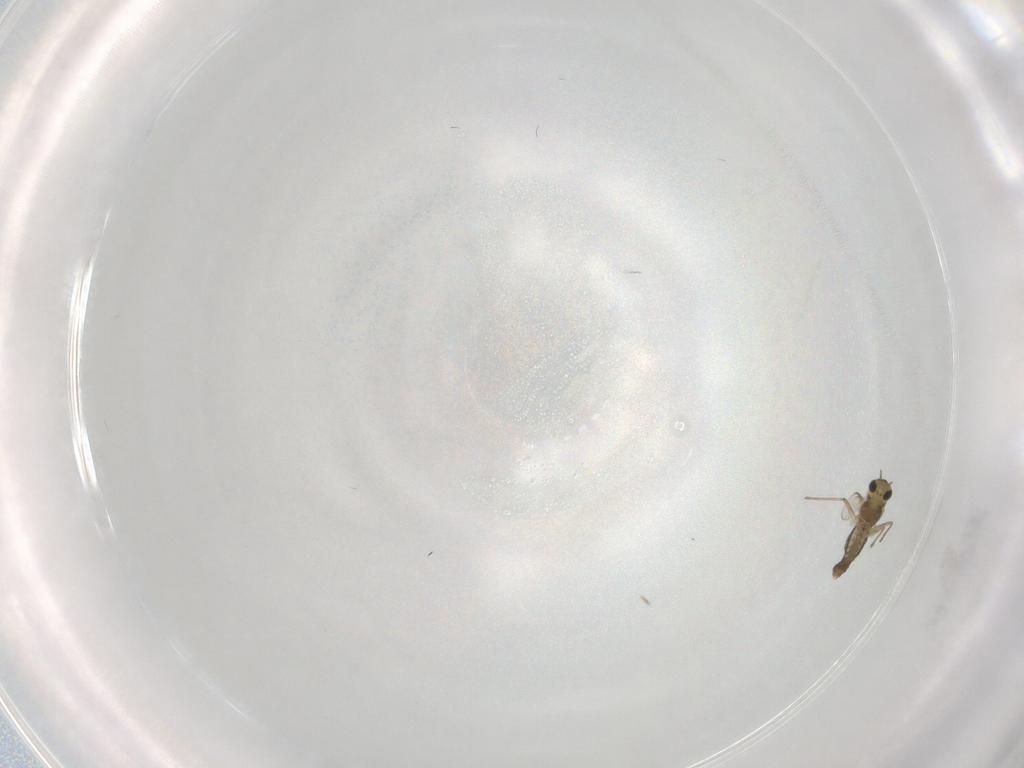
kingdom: Animalia
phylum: Arthropoda
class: Insecta
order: Diptera
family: Chironomidae
